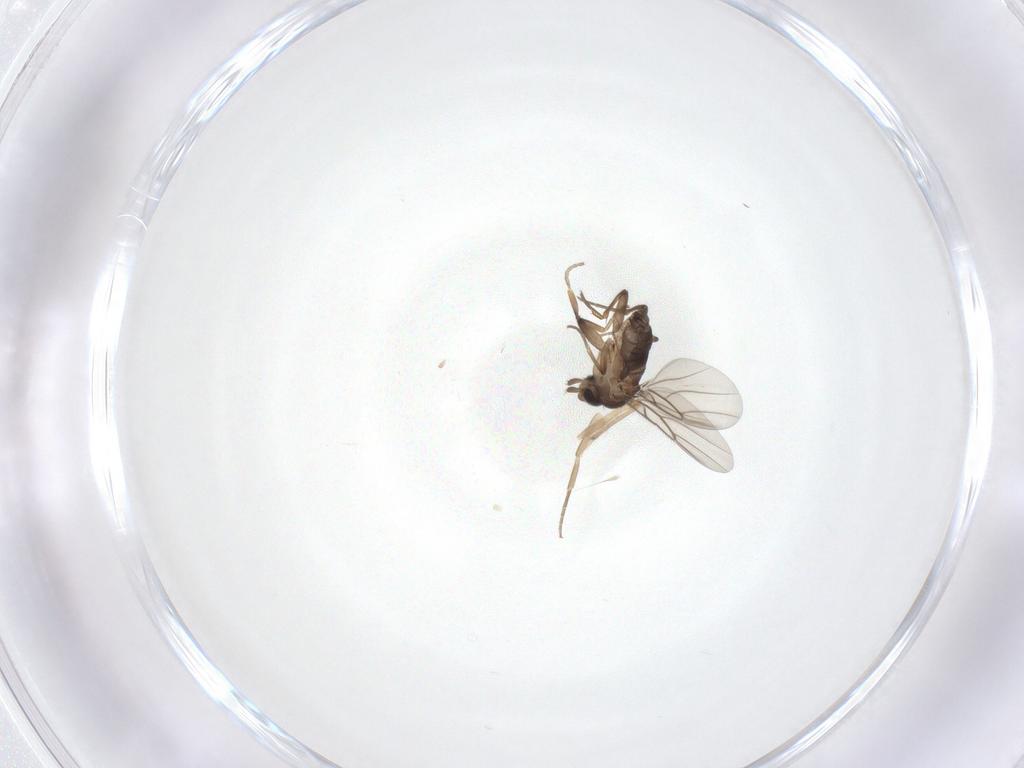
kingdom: Animalia
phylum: Arthropoda
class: Insecta
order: Diptera
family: Phoridae
